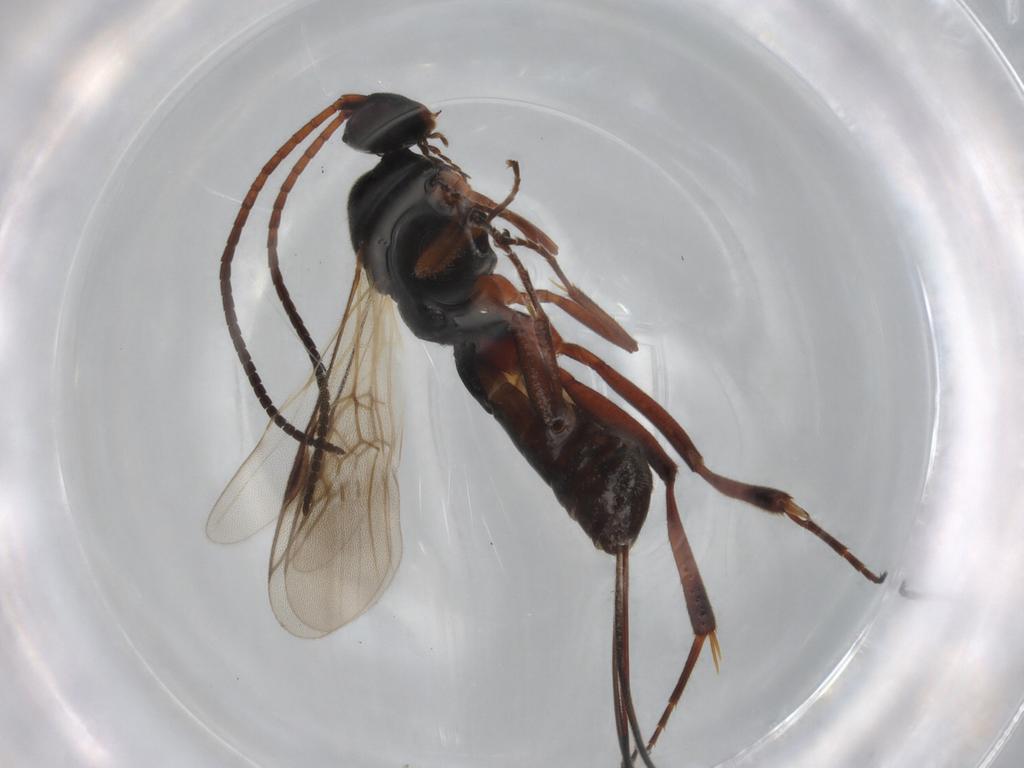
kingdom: Animalia
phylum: Arthropoda
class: Insecta
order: Hymenoptera
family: Braconidae
